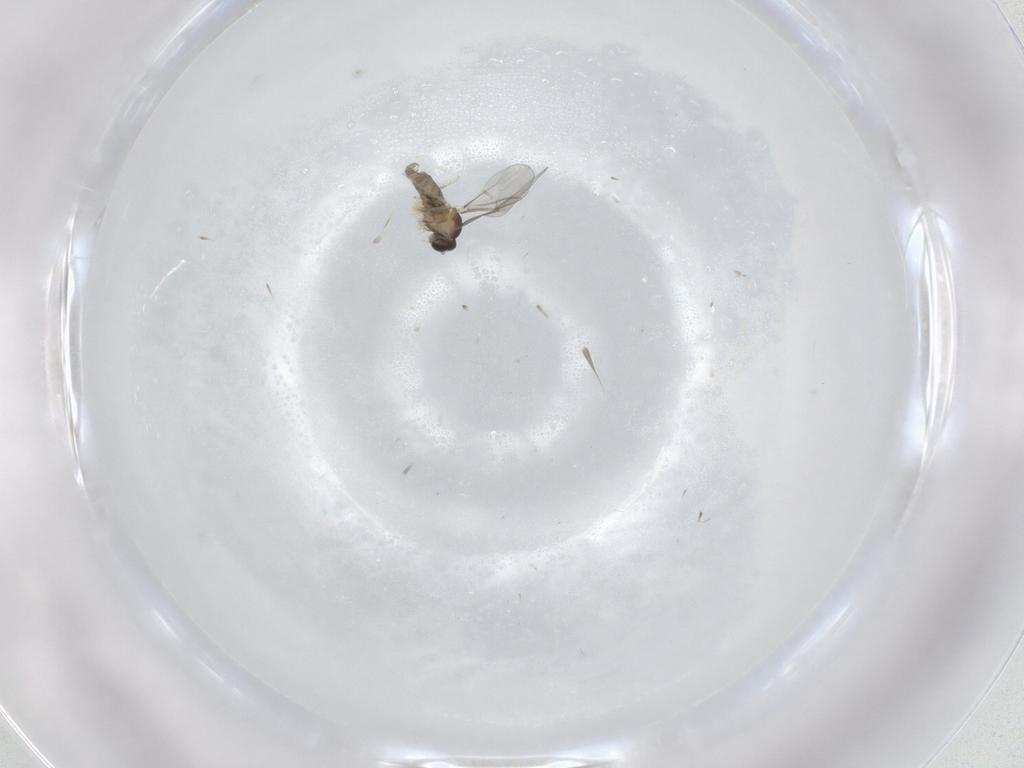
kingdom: Animalia
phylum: Arthropoda
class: Insecta
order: Diptera
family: Cecidomyiidae
